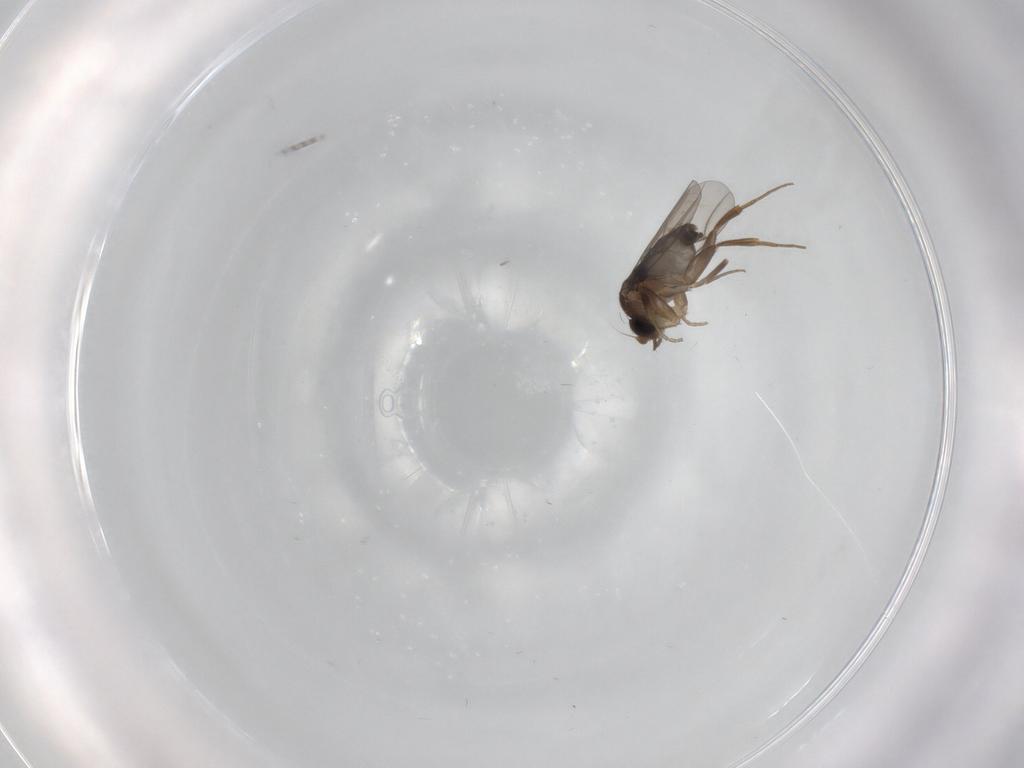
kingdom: Animalia
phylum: Arthropoda
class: Insecta
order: Diptera
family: Phoridae
